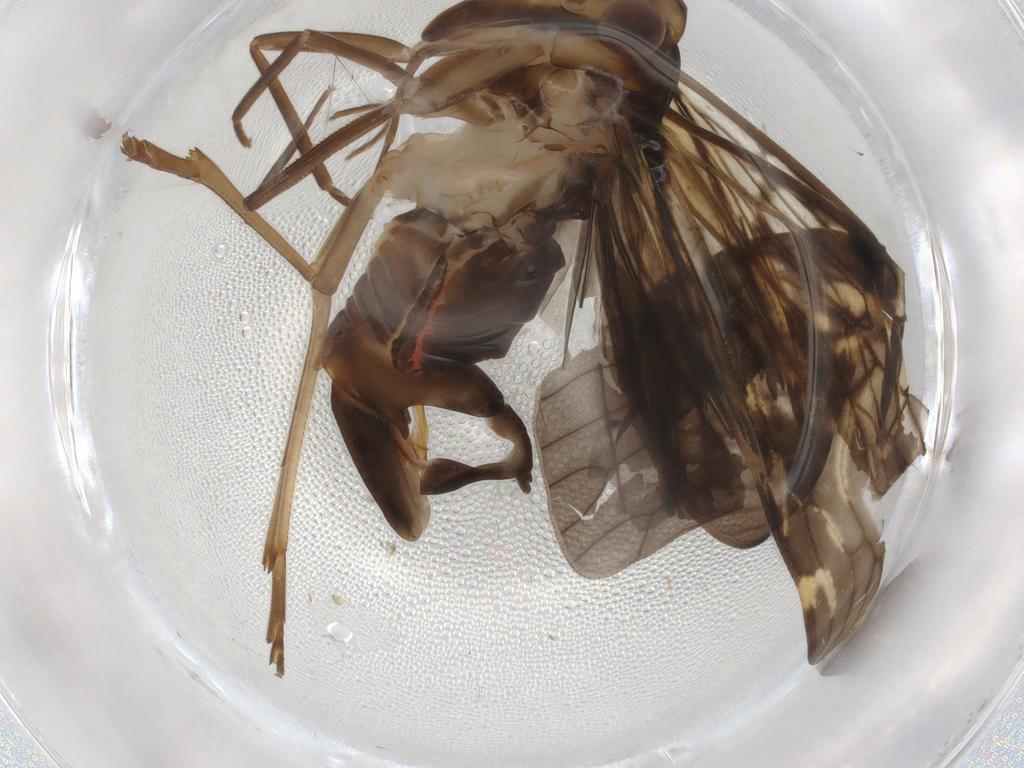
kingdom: Animalia
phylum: Arthropoda
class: Insecta
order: Hemiptera
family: Cixiidae
